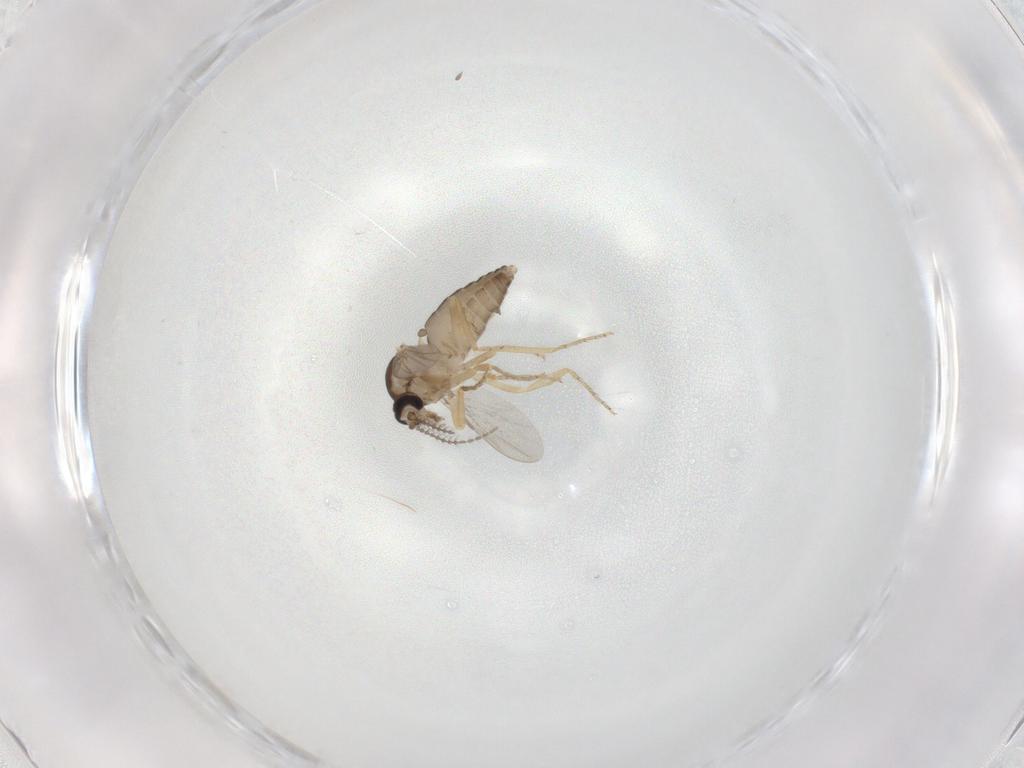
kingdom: Animalia
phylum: Arthropoda
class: Insecta
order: Diptera
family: Ceratopogonidae
